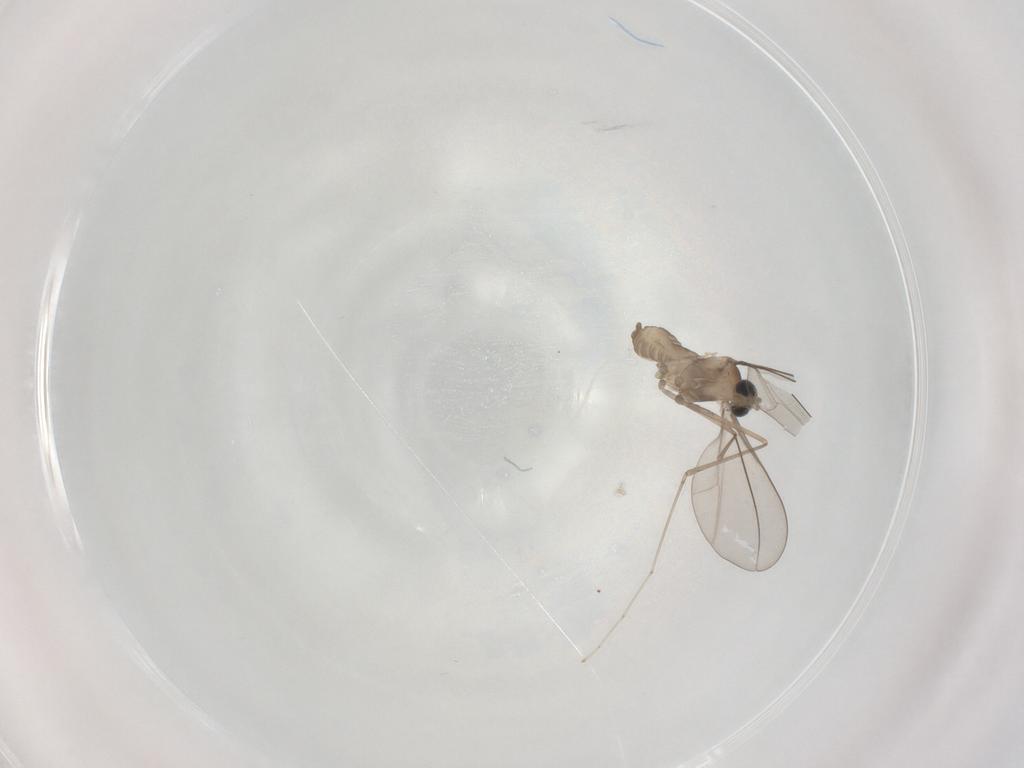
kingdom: Animalia
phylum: Arthropoda
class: Insecta
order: Diptera
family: Cecidomyiidae
